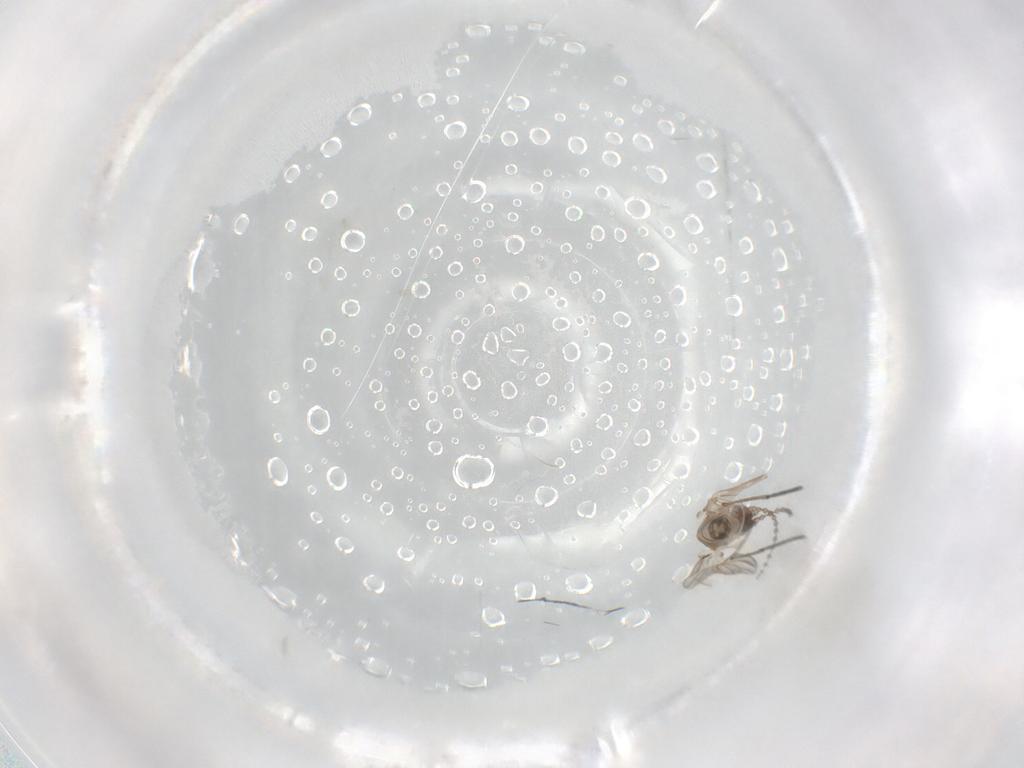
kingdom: Animalia
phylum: Arthropoda
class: Insecta
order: Diptera
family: Psychodidae
